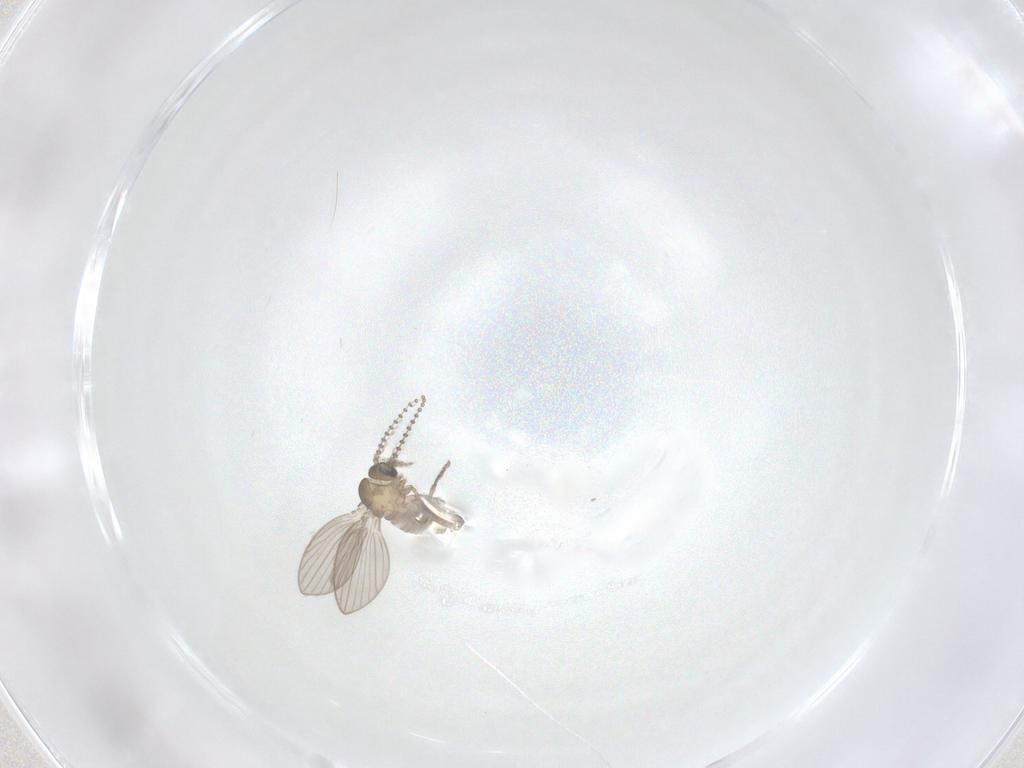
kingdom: Animalia
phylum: Arthropoda
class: Insecta
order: Diptera
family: Psychodidae
